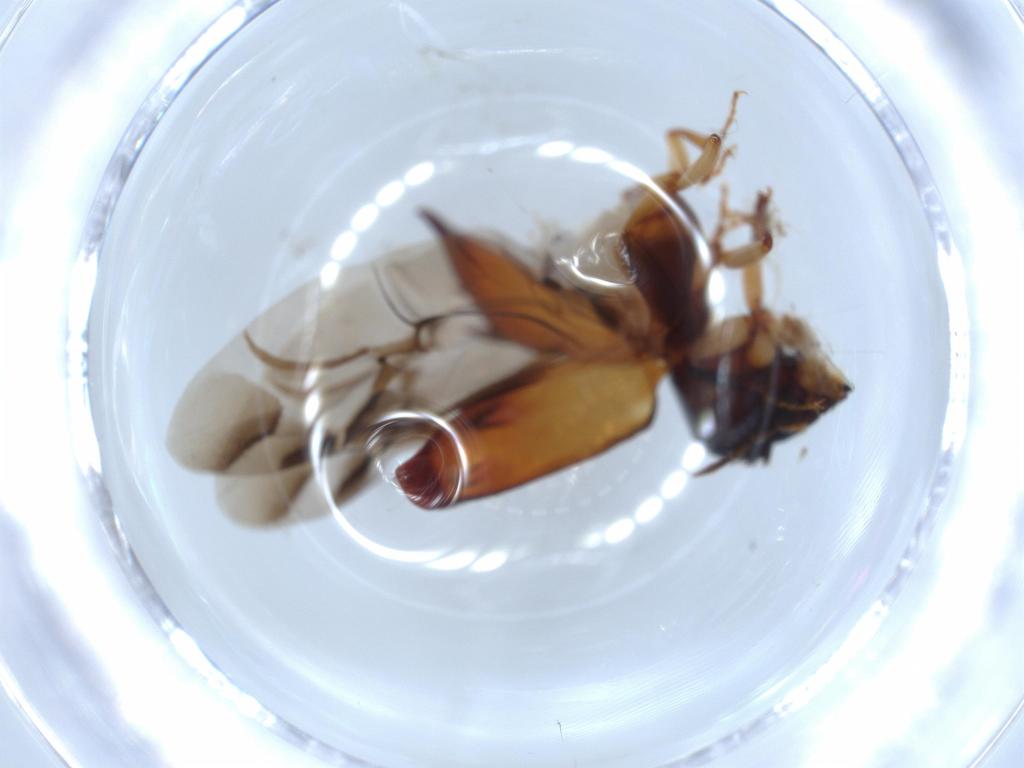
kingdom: Animalia
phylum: Arthropoda
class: Insecta
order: Coleoptera
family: Bostrichidae
